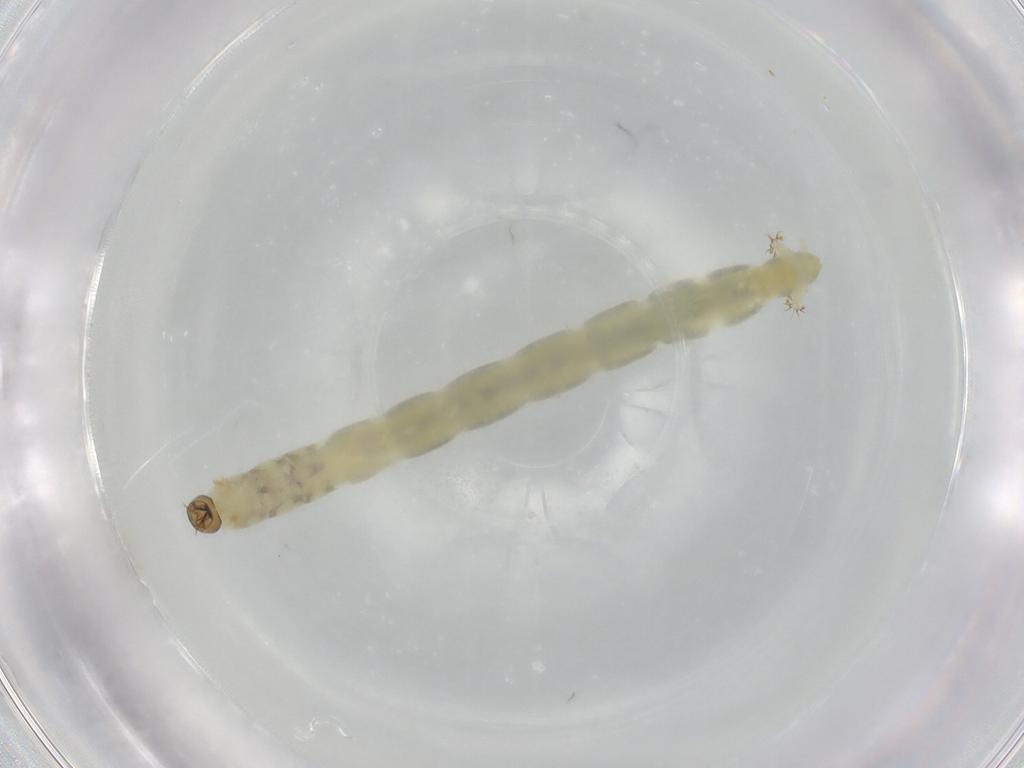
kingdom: Animalia
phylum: Arthropoda
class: Insecta
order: Diptera
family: Chironomidae
